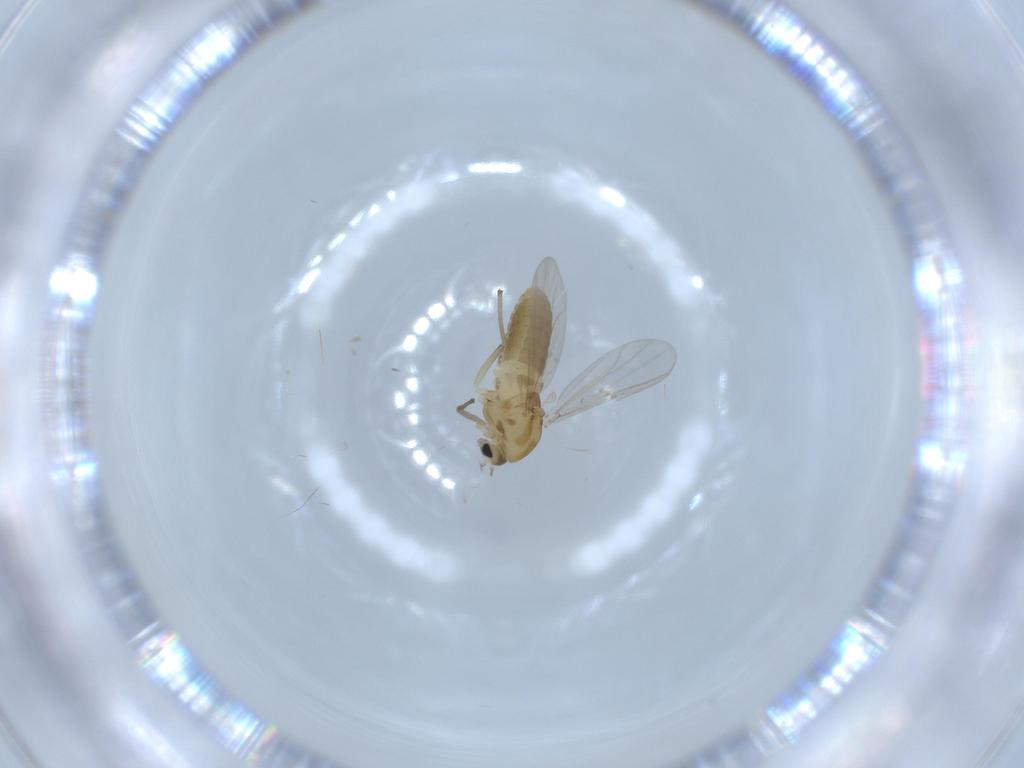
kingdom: Animalia
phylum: Arthropoda
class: Insecta
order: Diptera
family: Chironomidae
